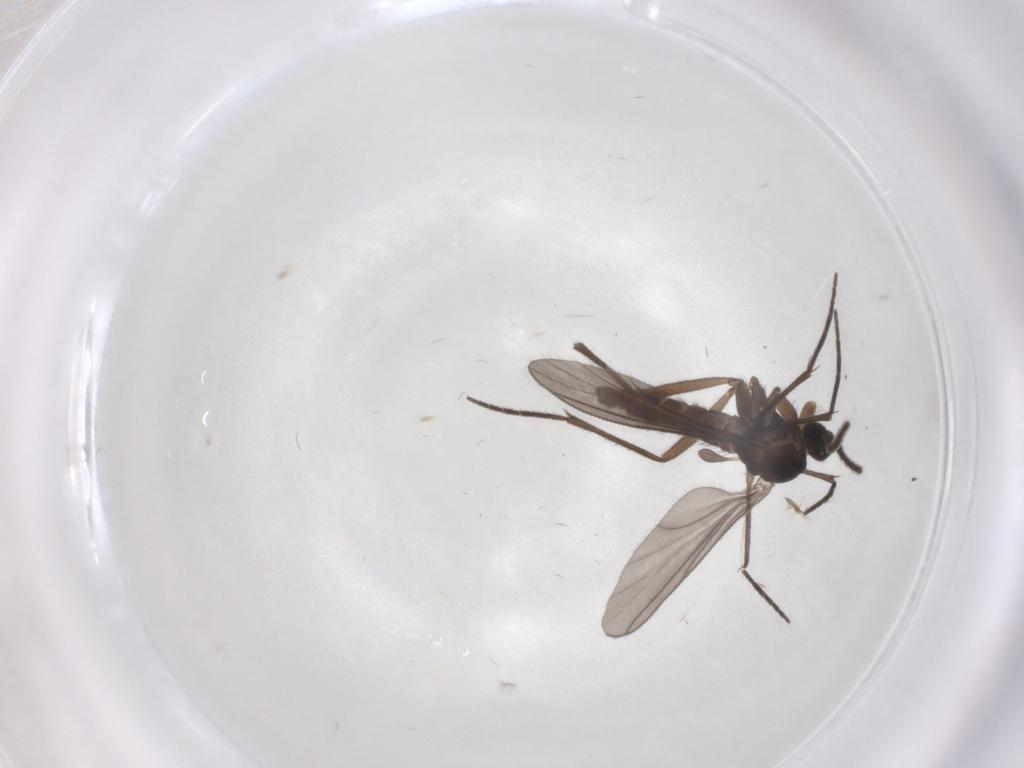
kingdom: Animalia
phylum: Arthropoda
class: Insecta
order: Diptera
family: Sciaridae
